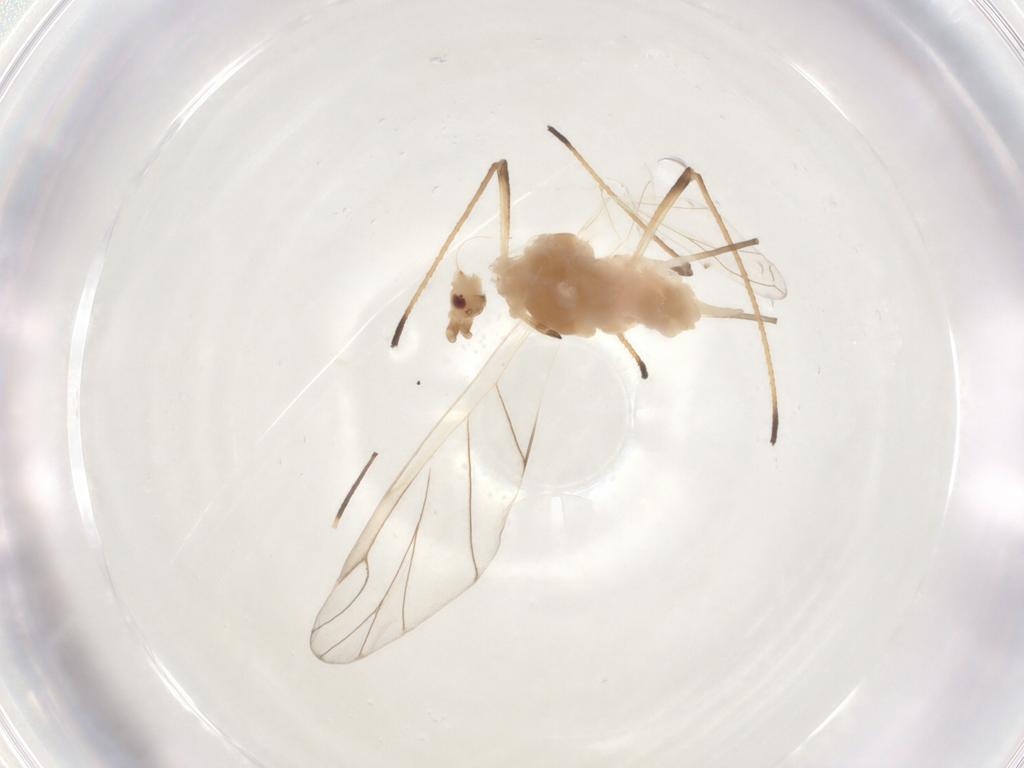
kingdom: Animalia
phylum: Arthropoda
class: Insecta
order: Hemiptera
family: Aphididae
